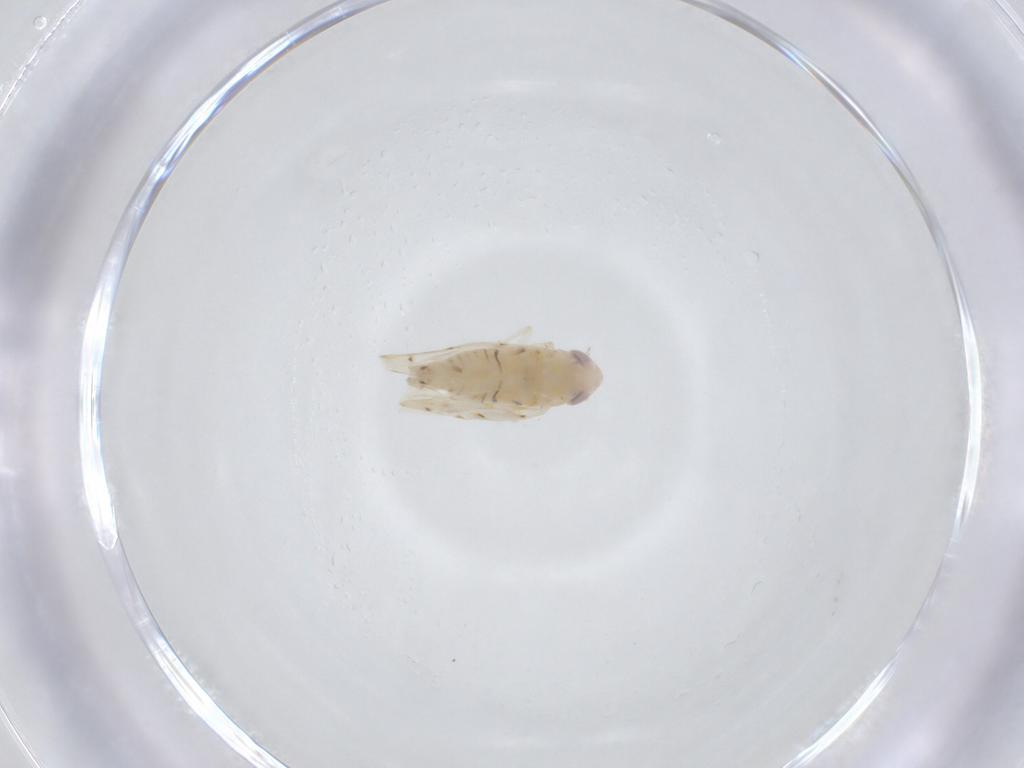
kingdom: Animalia
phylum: Arthropoda
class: Insecta
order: Hemiptera
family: Cicadellidae
